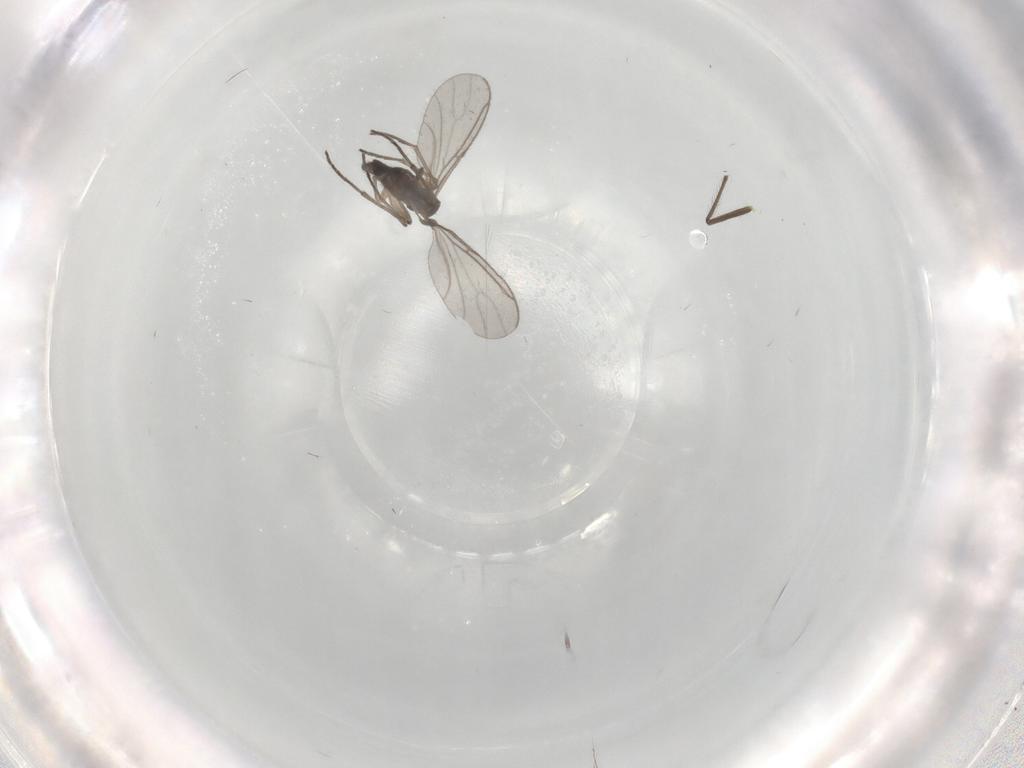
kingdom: Animalia
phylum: Arthropoda
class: Insecta
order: Diptera
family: Sciaridae
